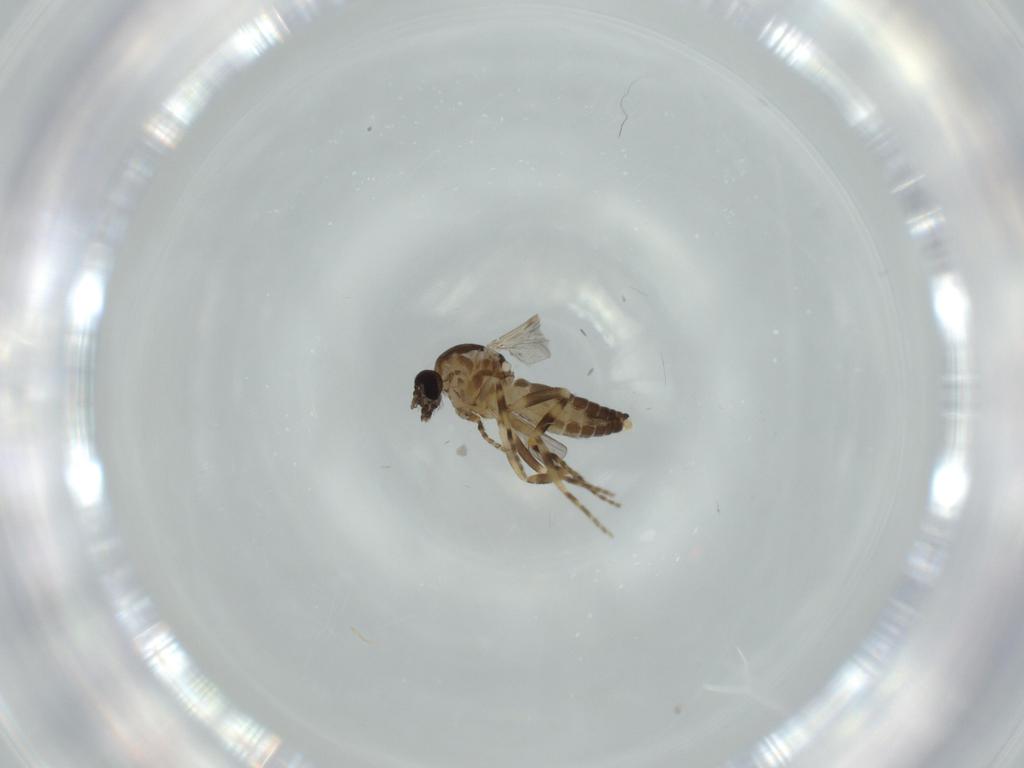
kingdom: Animalia
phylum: Arthropoda
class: Insecta
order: Diptera
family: Ceratopogonidae
